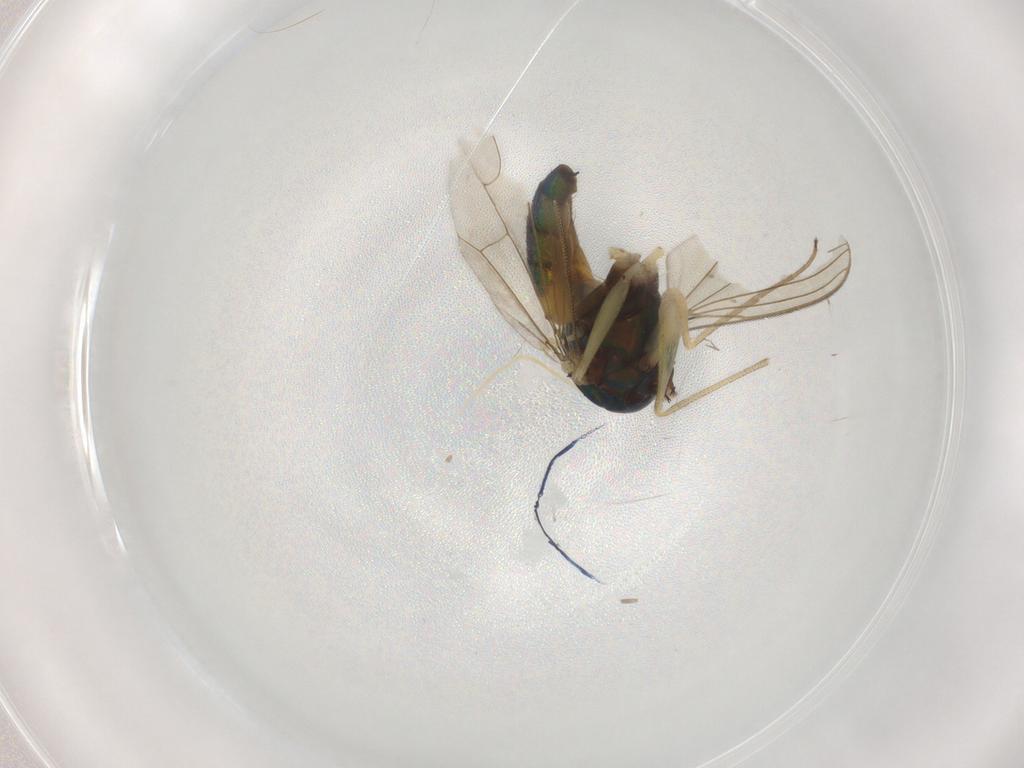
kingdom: Animalia
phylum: Arthropoda
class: Insecta
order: Diptera
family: Dolichopodidae
